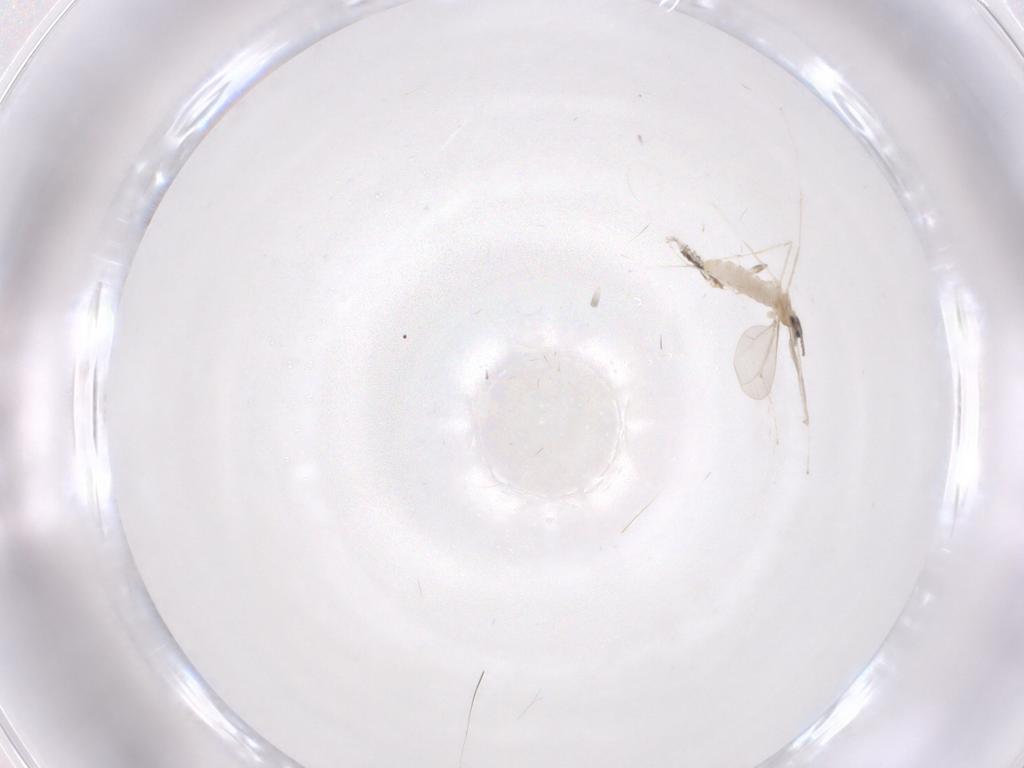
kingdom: Animalia
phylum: Arthropoda
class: Insecta
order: Diptera
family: Cecidomyiidae
